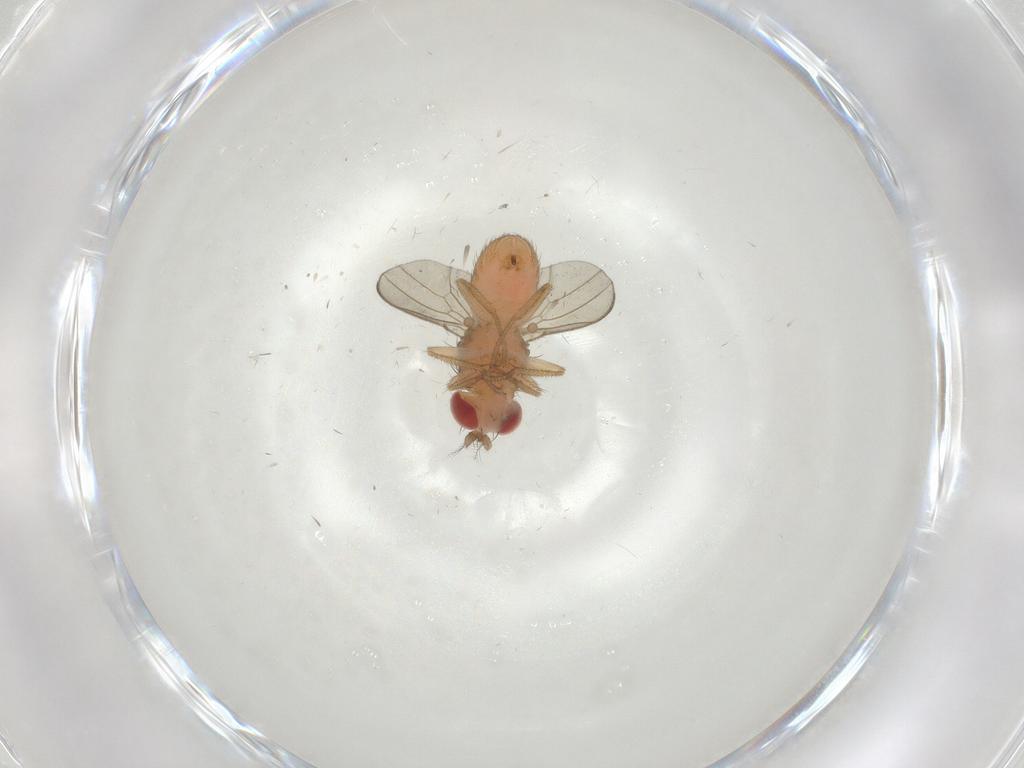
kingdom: Animalia
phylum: Arthropoda
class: Insecta
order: Diptera
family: Drosophilidae
